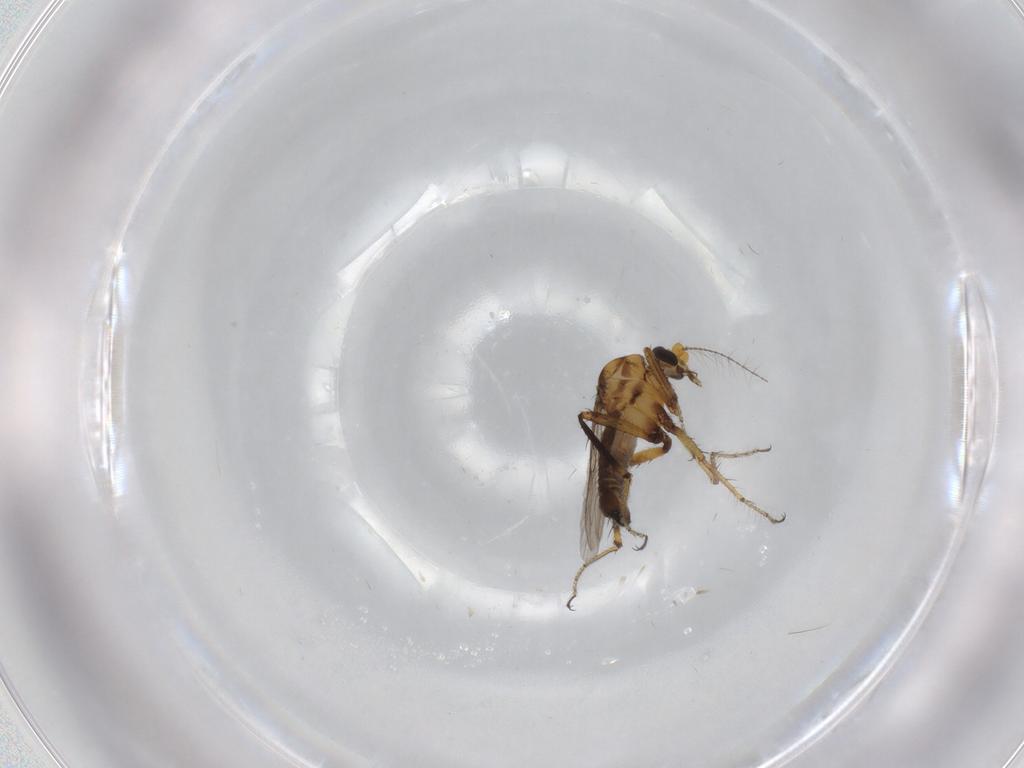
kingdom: Animalia
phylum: Arthropoda
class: Insecta
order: Diptera
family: Ceratopogonidae
